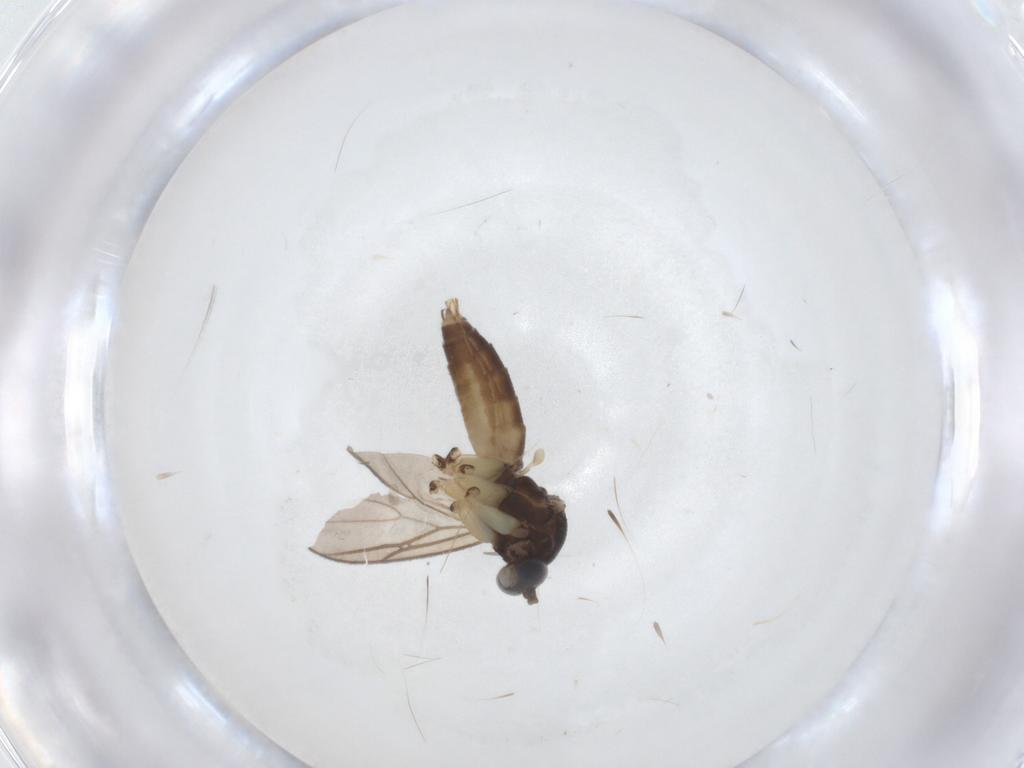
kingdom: Animalia
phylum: Arthropoda
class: Insecta
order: Diptera
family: Mycetophilidae
